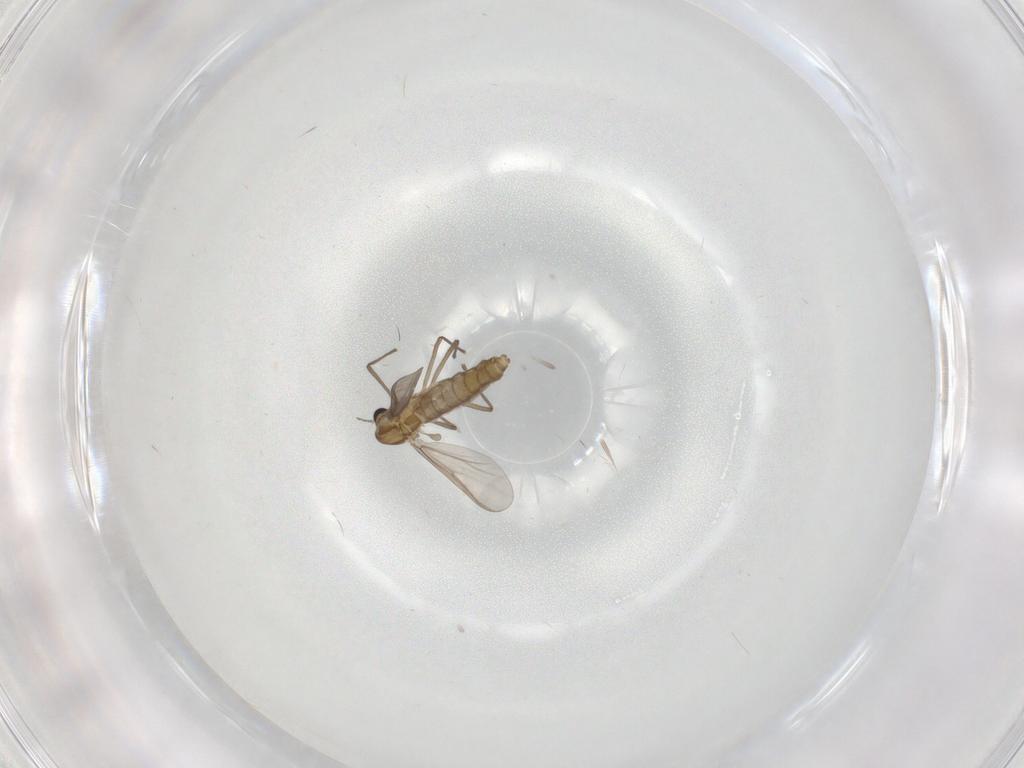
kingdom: Animalia
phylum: Arthropoda
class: Insecta
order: Diptera
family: Cecidomyiidae
